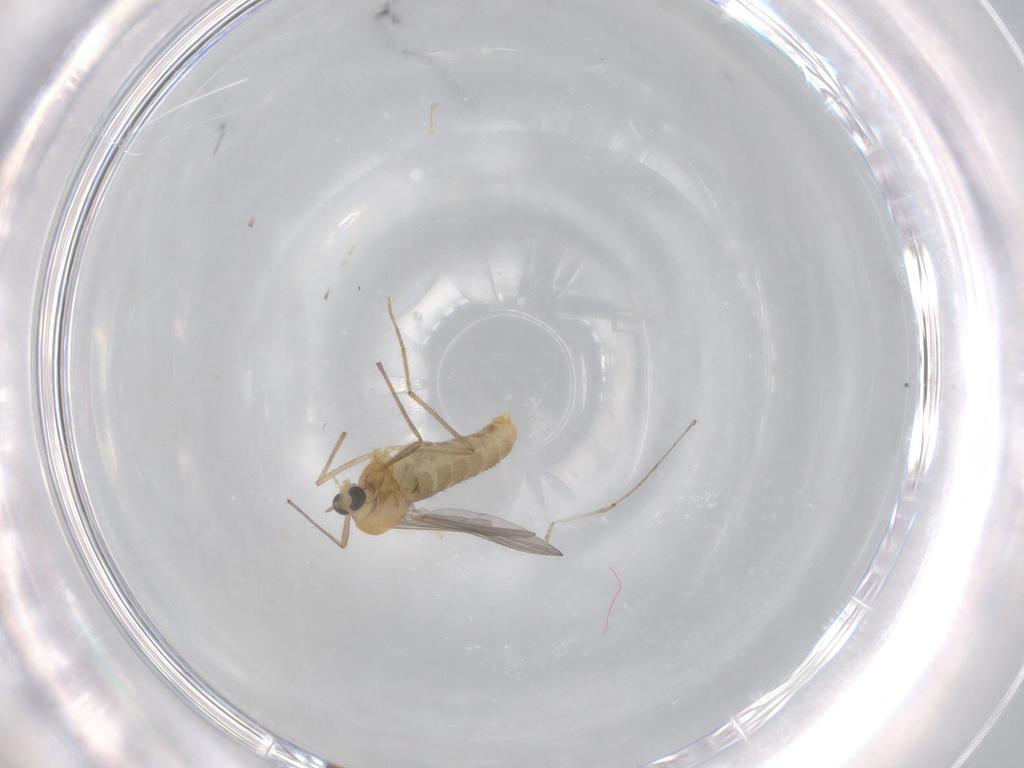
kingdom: Animalia
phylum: Arthropoda
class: Insecta
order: Diptera
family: Chironomidae
